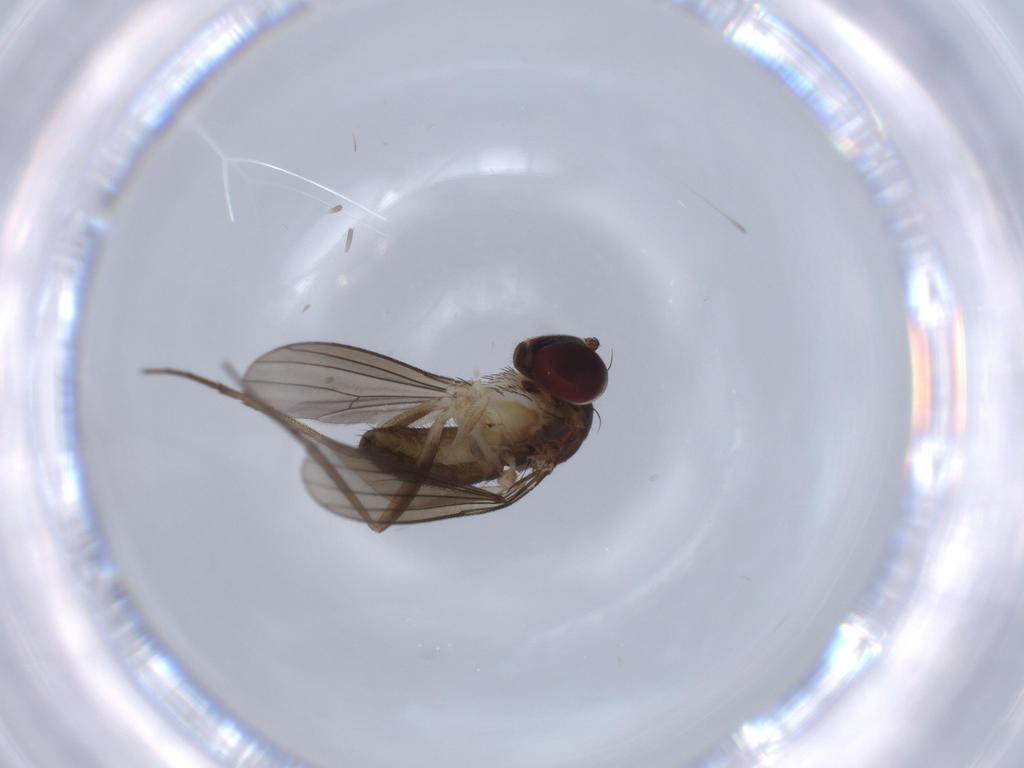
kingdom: Animalia
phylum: Arthropoda
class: Insecta
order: Diptera
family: Dolichopodidae
